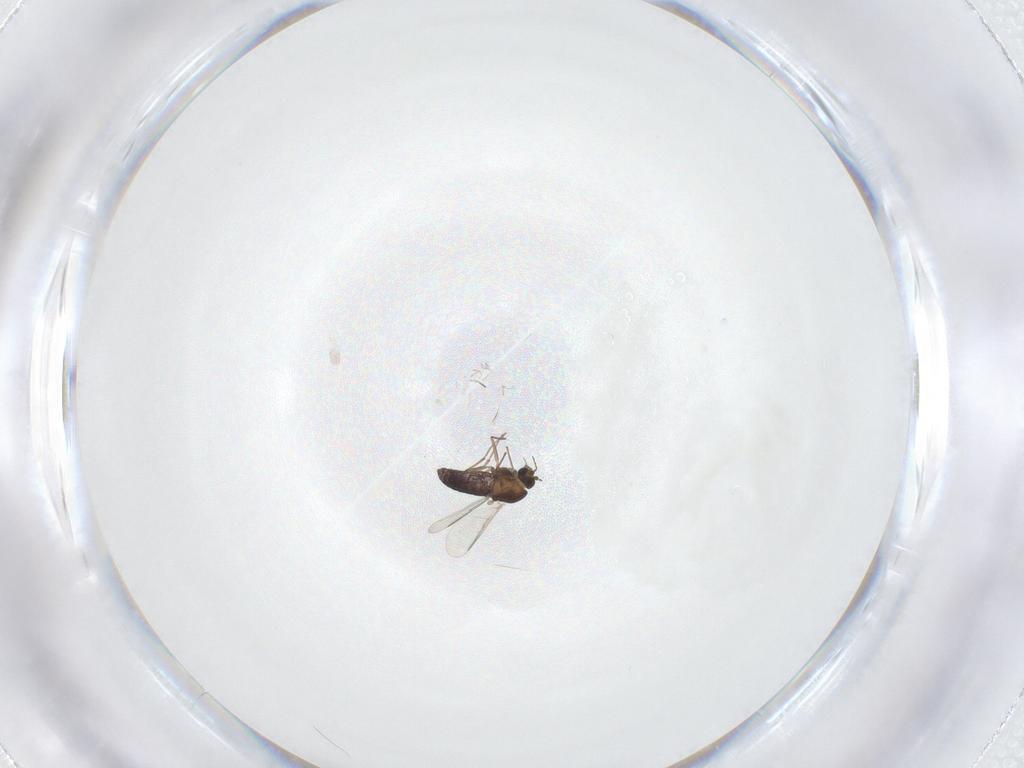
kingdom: Animalia
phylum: Arthropoda
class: Insecta
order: Diptera
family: Chironomidae
